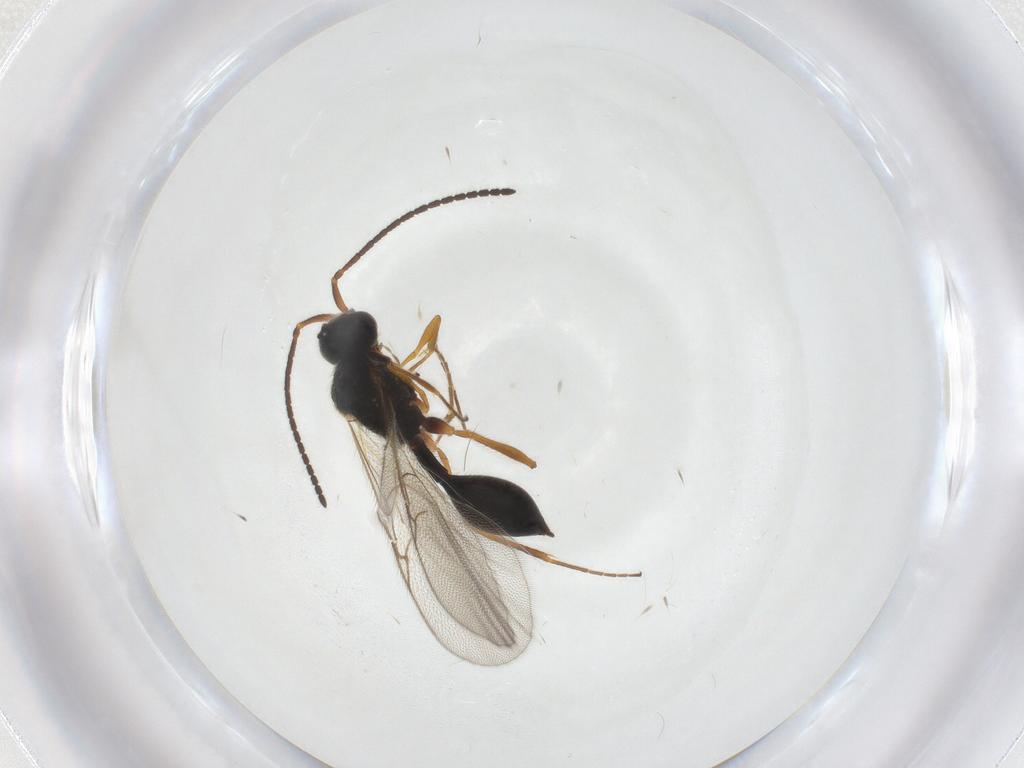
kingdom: Animalia
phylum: Arthropoda
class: Insecta
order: Hymenoptera
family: Diapriidae
